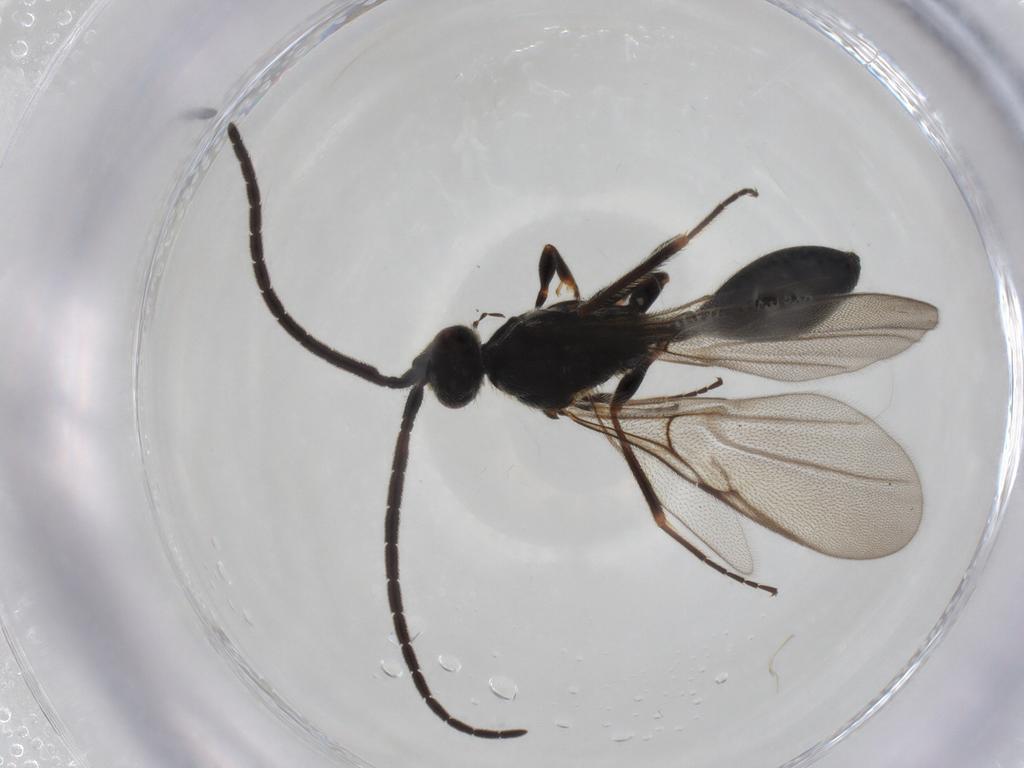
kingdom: Animalia
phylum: Arthropoda
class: Insecta
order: Hymenoptera
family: Diapriidae
